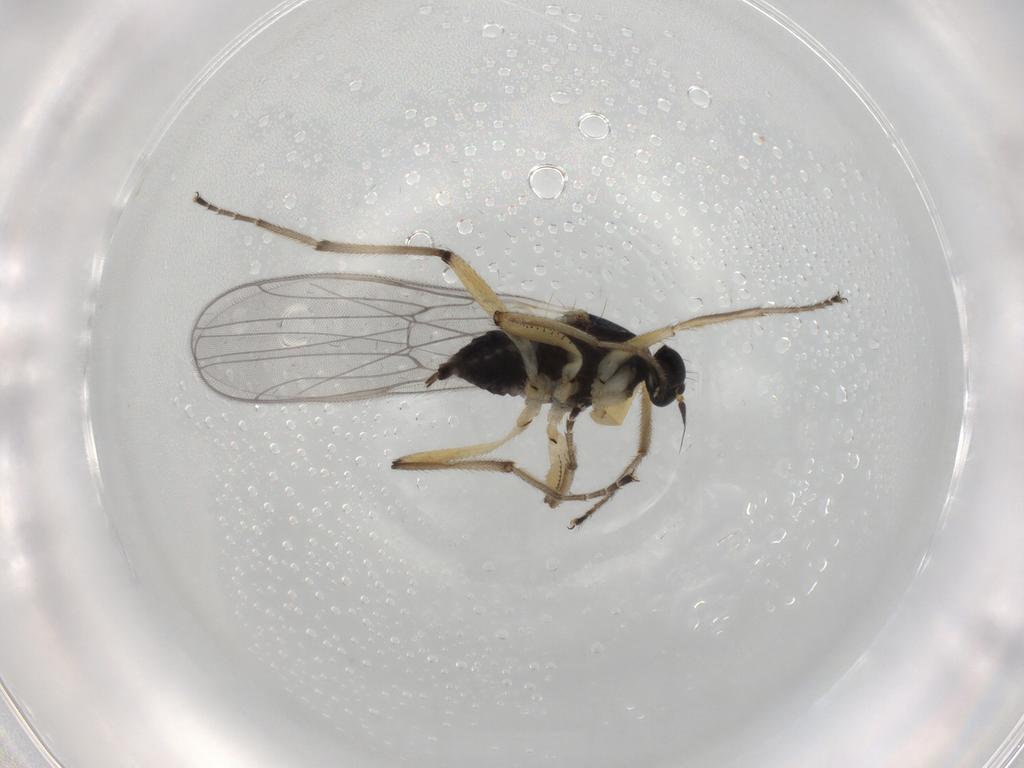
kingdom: Animalia
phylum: Arthropoda
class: Insecta
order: Diptera
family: Hybotidae
